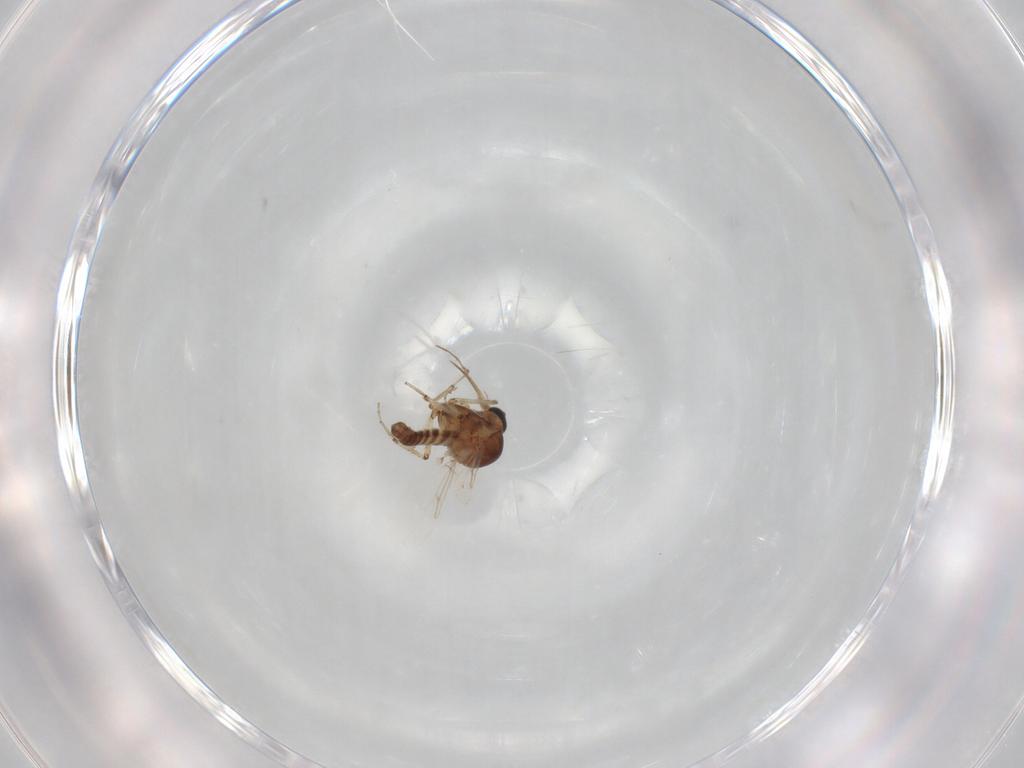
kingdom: Animalia
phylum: Arthropoda
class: Insecta
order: Diptera
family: Ceratopogonidae
